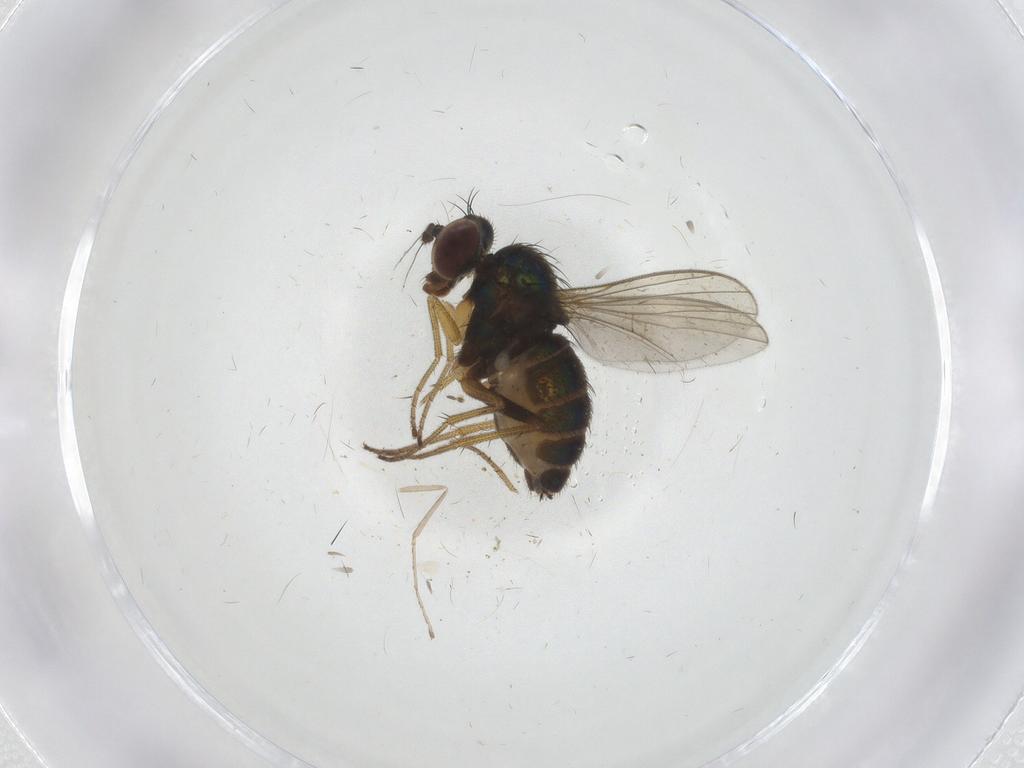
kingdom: Animalia
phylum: Arthropoda
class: Insecta
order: Diptera
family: Dolichopodidae
